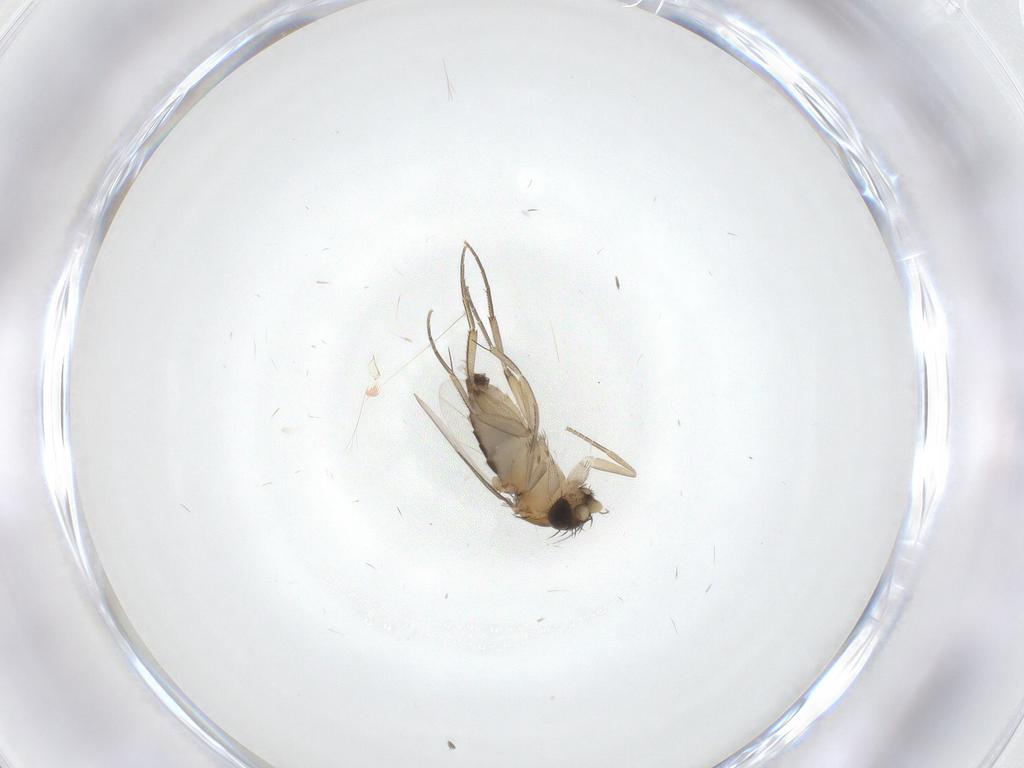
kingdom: Animalia
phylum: Arthropoda
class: Insecta
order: Diptera
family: Phoridae
